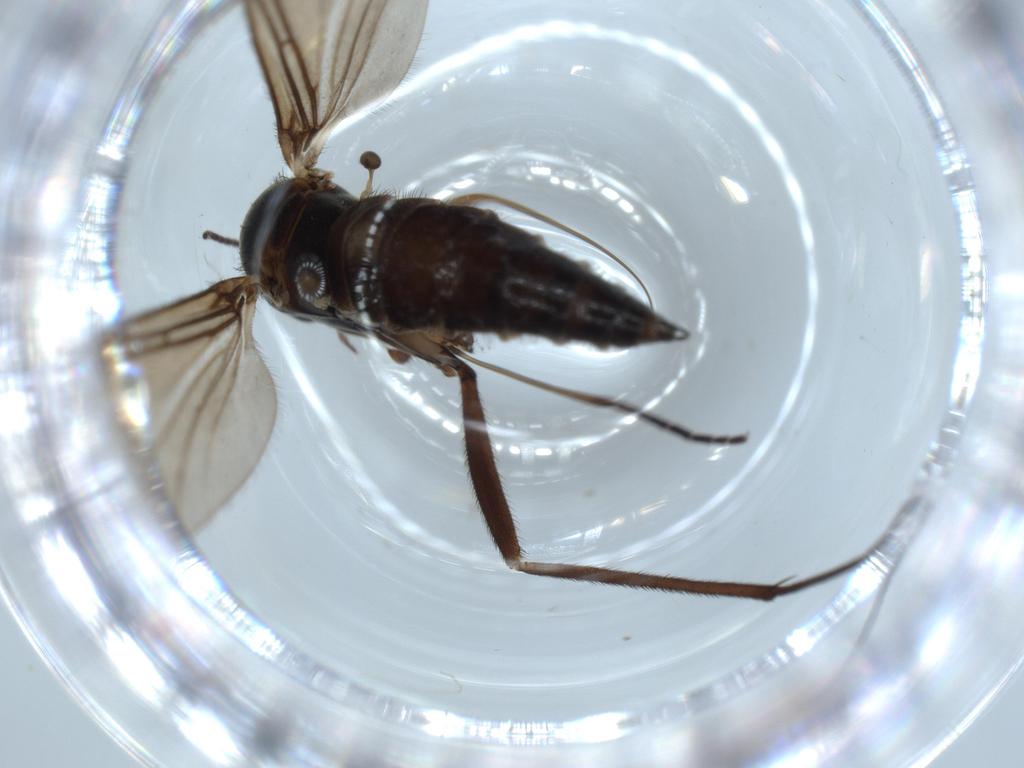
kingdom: Animalia
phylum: Arthropoda
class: Insecta
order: Diptera
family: Sciaridae
